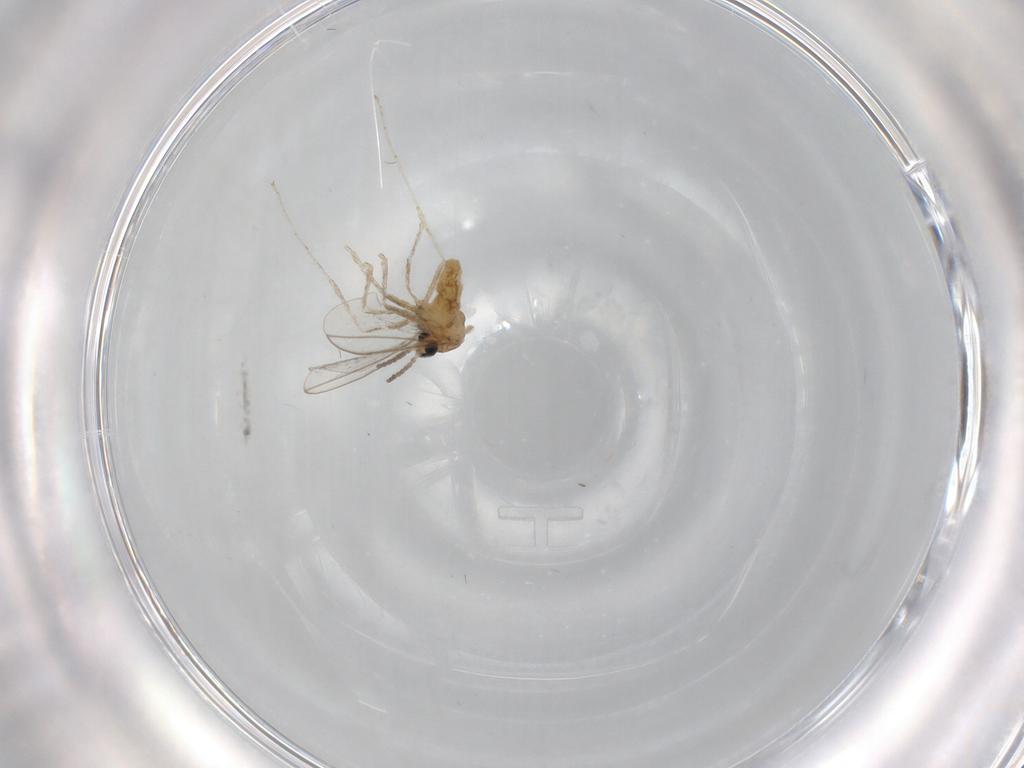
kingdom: Animalia
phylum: Arthropoda
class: Insecta
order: Diptera
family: Cecidomyiidae
